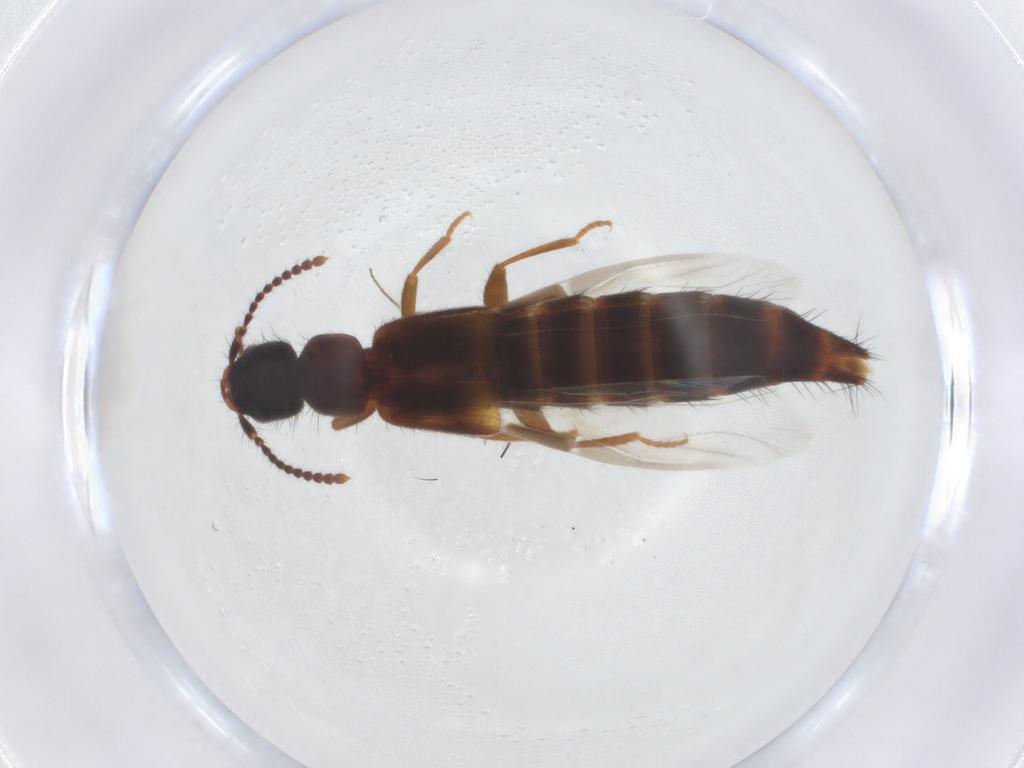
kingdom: Animalia
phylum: Arthropoda
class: Insecta
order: Coleoptera
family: Staphylinidae
